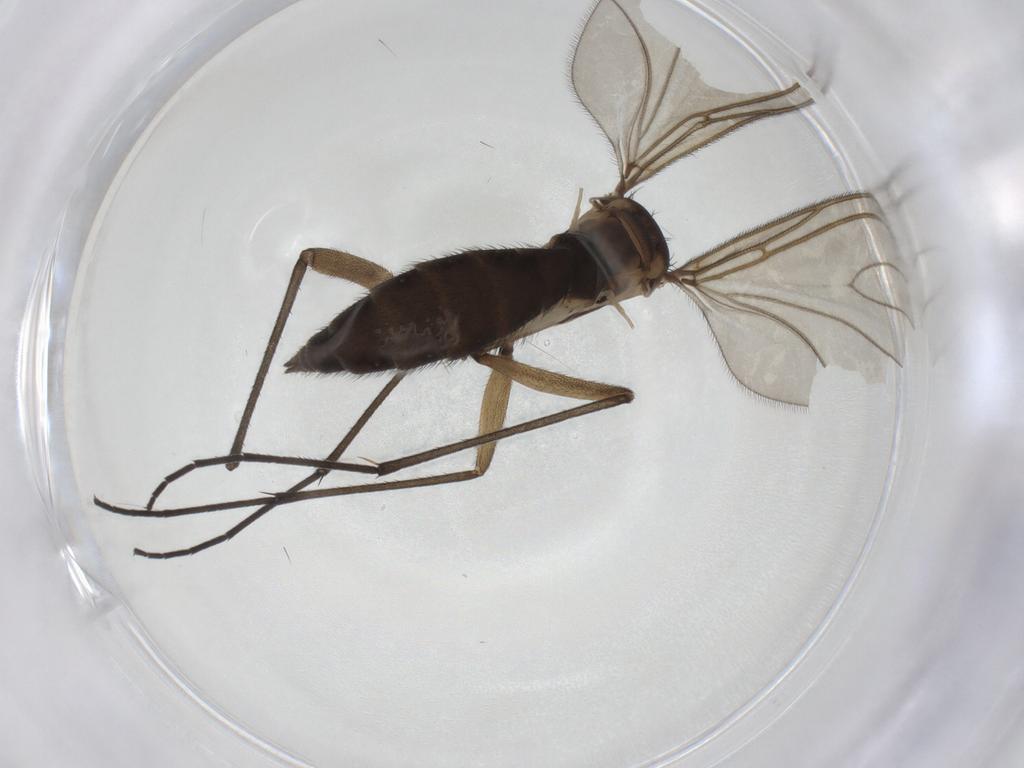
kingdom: Animalia
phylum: Arthropoda
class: Insecta
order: Diptera
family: Sciaridae
